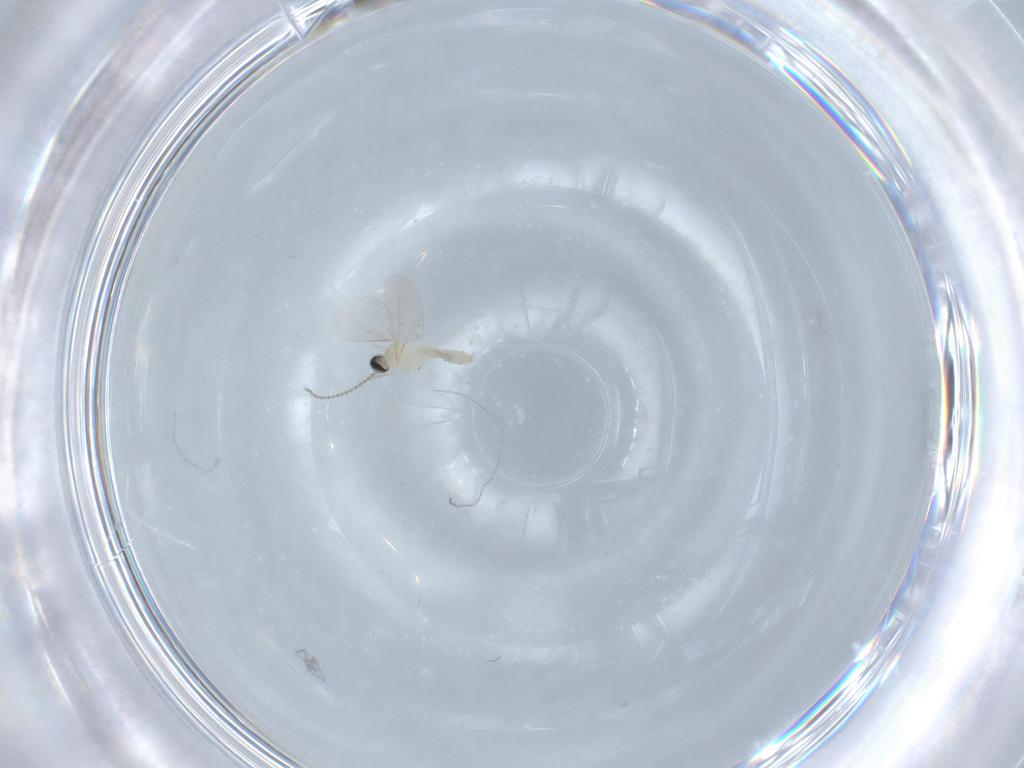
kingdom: Animalia
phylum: Arthropoda
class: Insecta
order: Diptera
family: Cecidomyiidae
